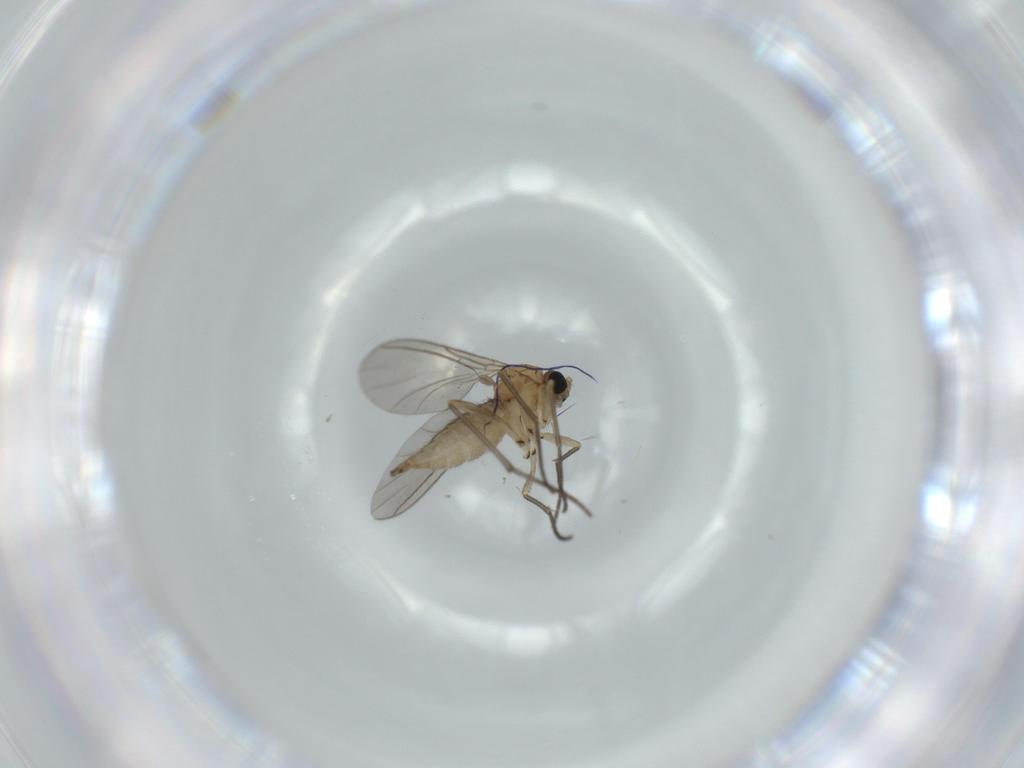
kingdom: Animalia
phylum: Arthropoda
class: Insecta
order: Diptera
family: Sciaridae
